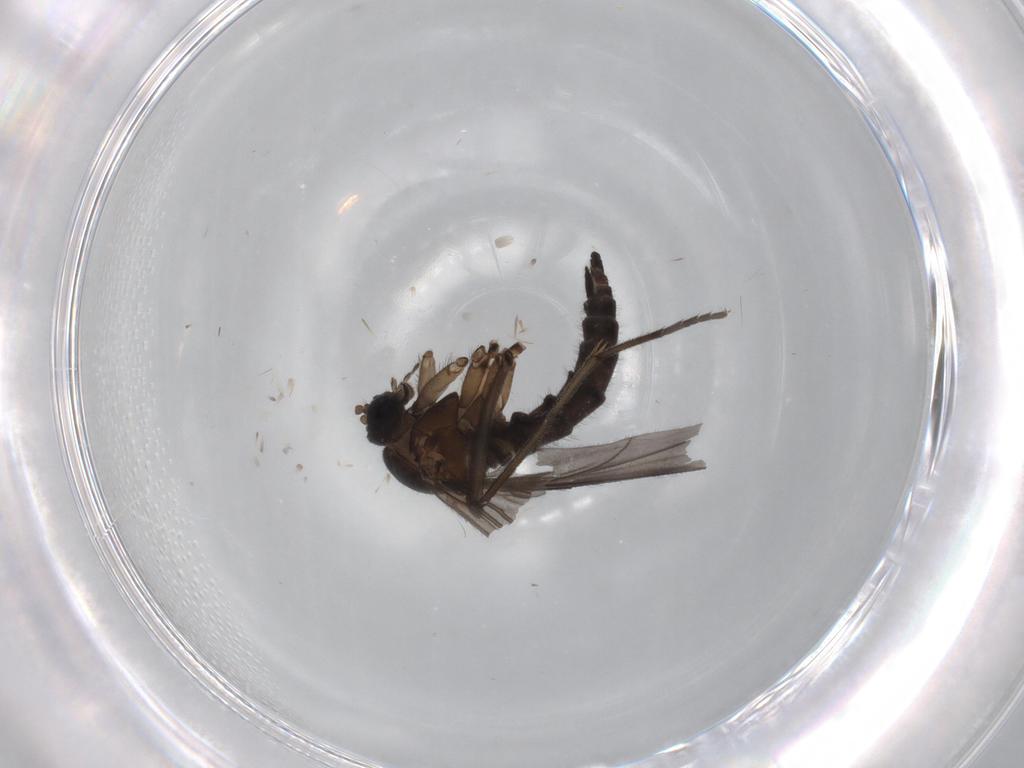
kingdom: Animalia
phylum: Arthropoda
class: Insecta
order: Diptera
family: Sciaridae
